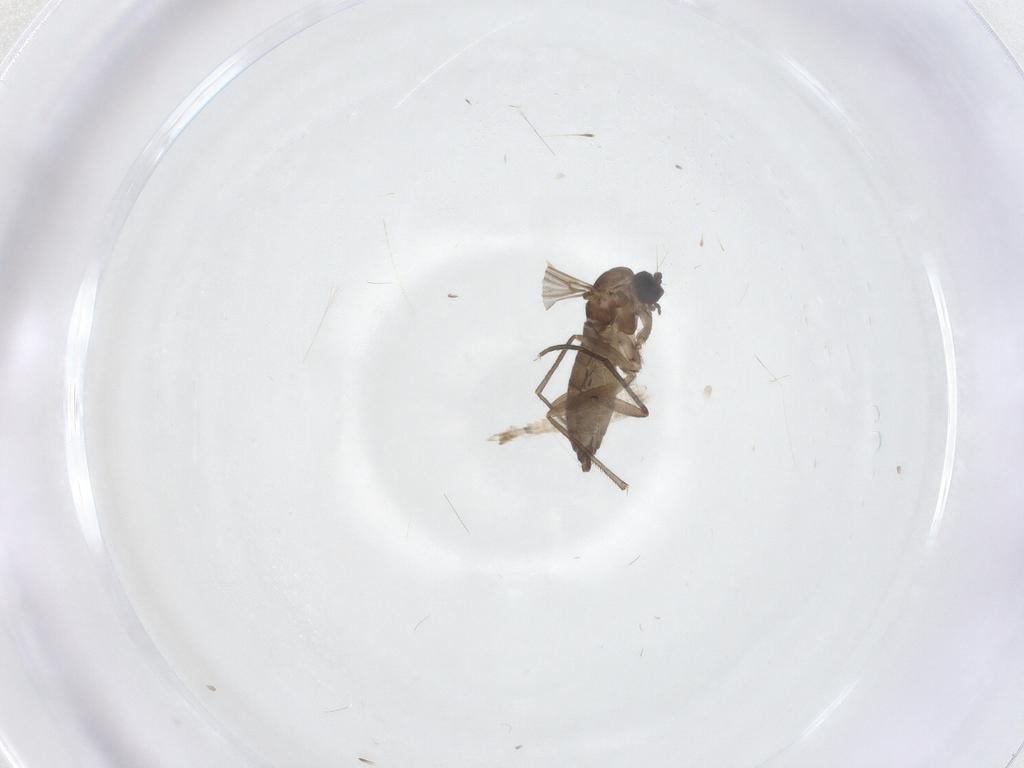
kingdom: Animalia
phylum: Arthropoda
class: Insecta
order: Diptera
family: Sciaridae
